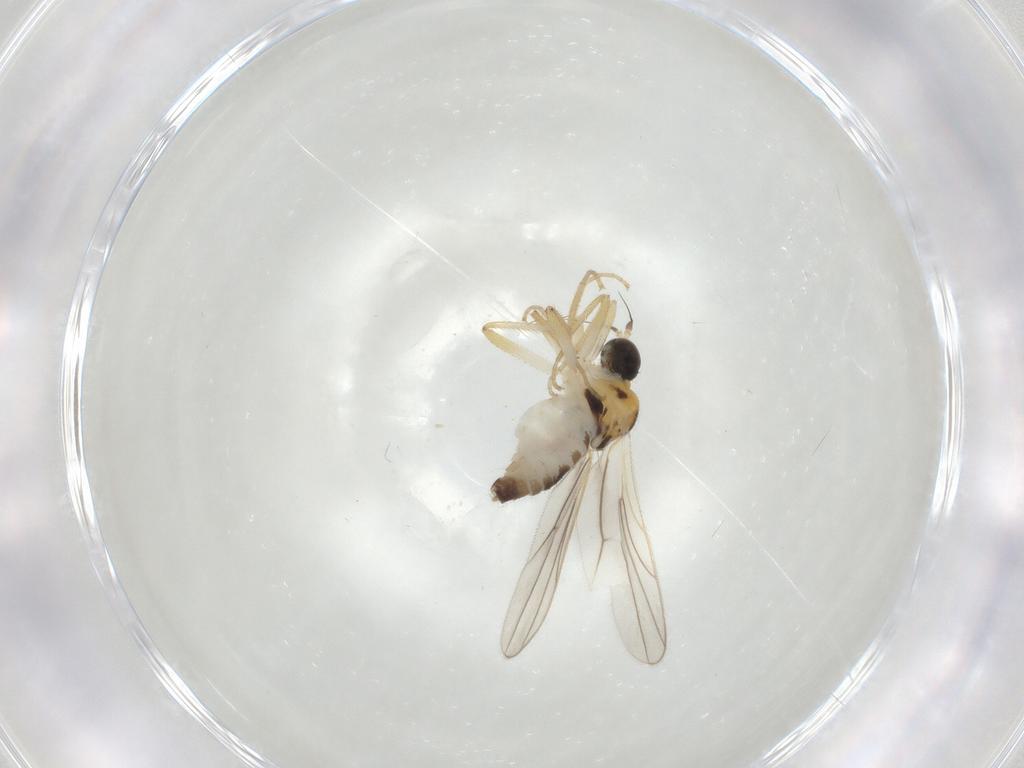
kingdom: Animalia
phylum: Arthropoda
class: Insecta
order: Diptera
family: Hybotidae
